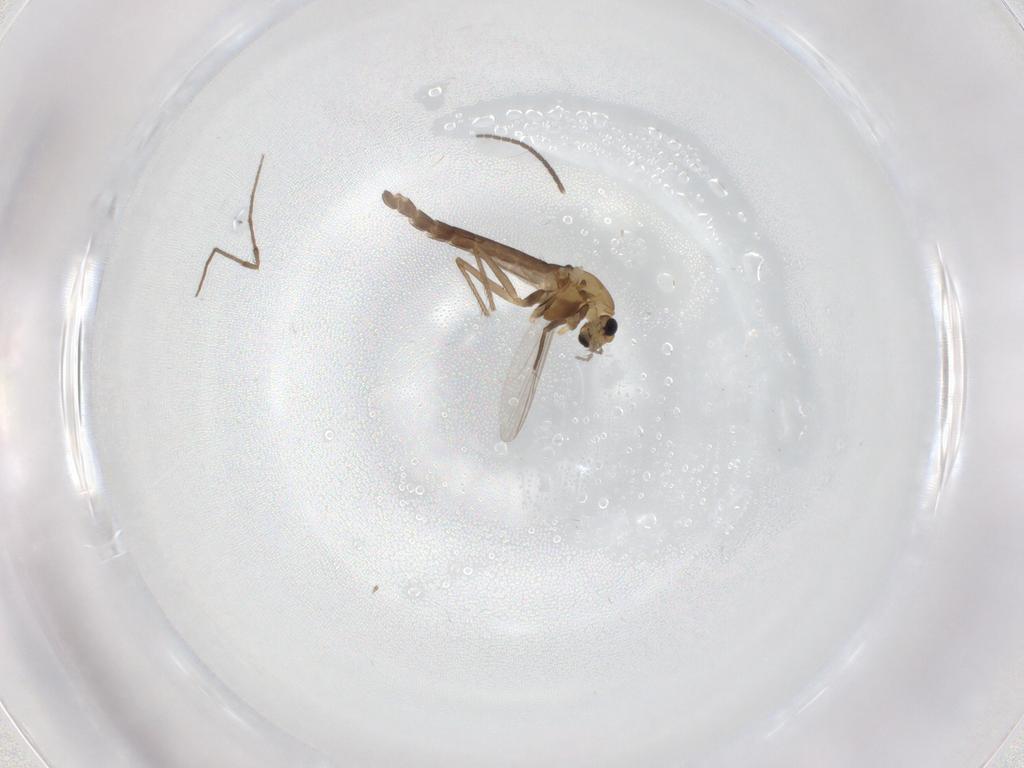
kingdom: Animalia
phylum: Arthropoda
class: Insecta
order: Diptera
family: Chironomidae
